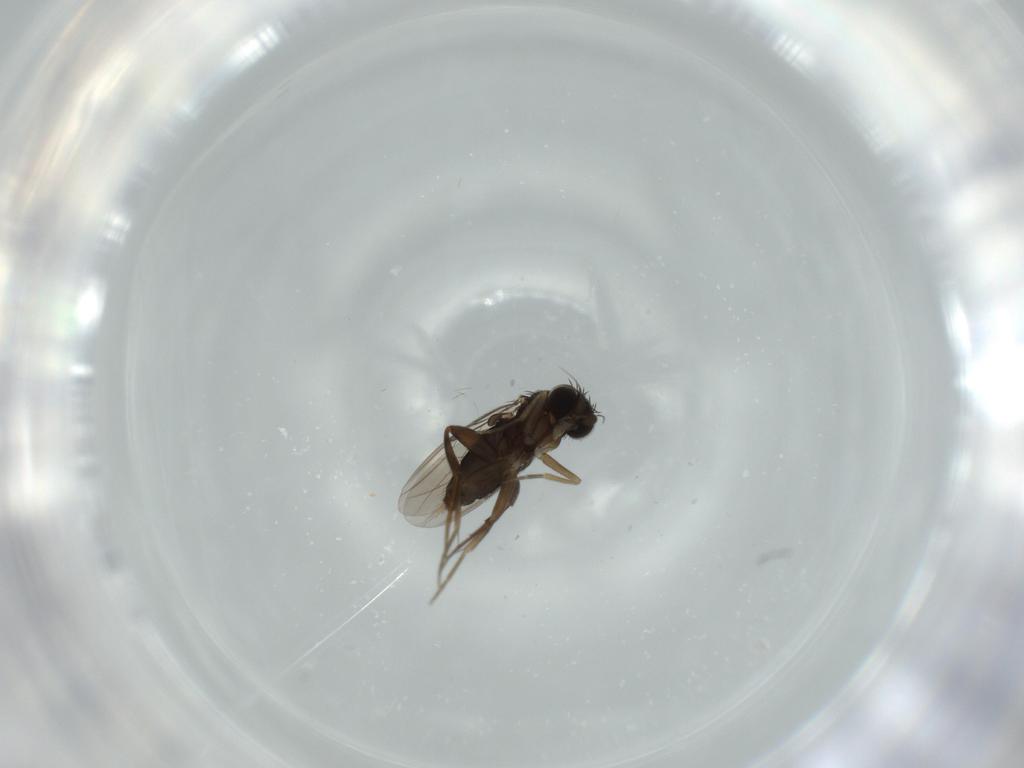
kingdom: Animalia
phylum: Arthropoda
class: Insecta
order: Diptera
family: Phoridae
